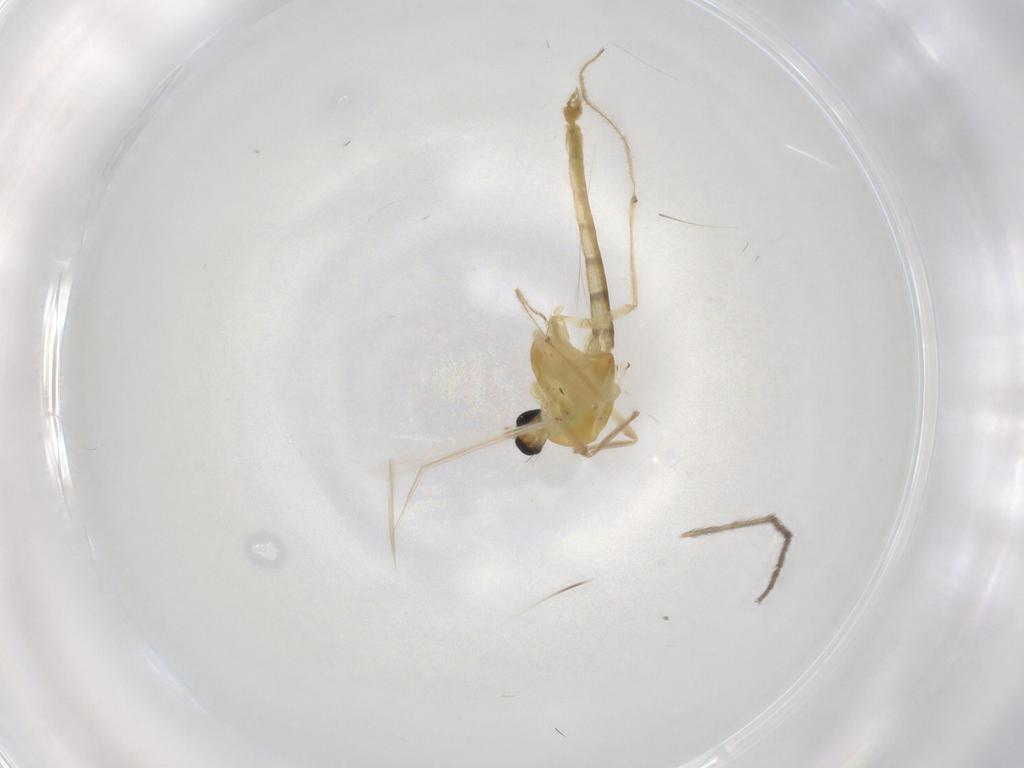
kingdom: Animalia
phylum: Arthropoda
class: Insecta
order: Diptera
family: Chironomidae
